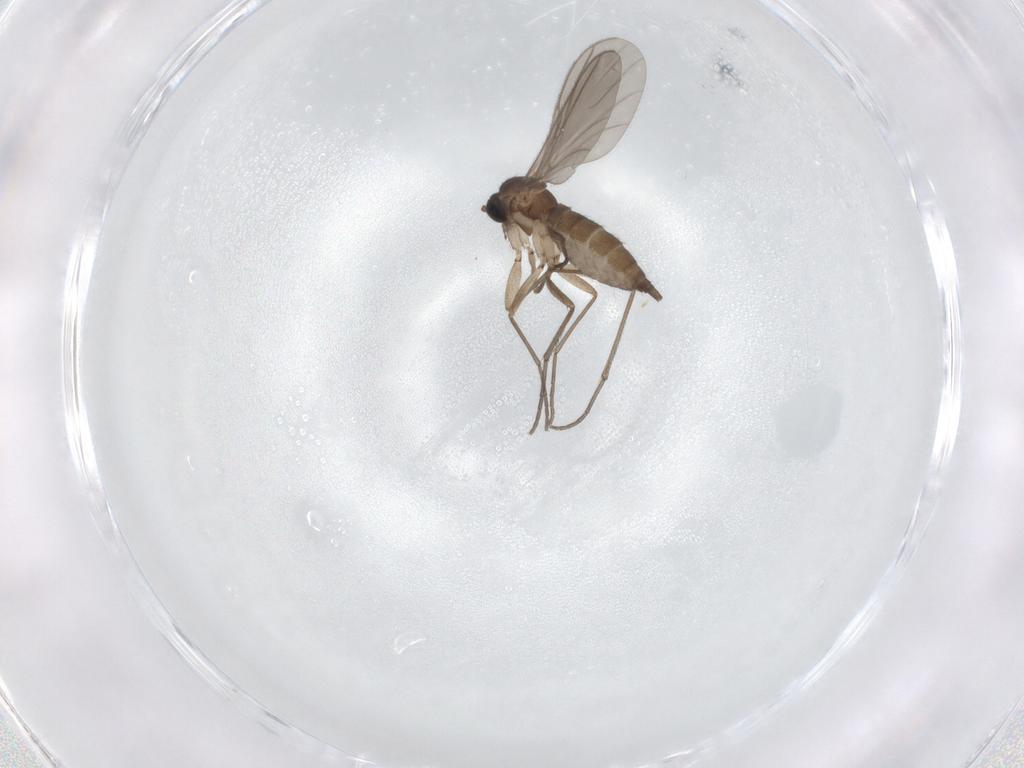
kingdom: Animalia
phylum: Arthropoda
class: Insecta
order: Diptera
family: Sciaridae
